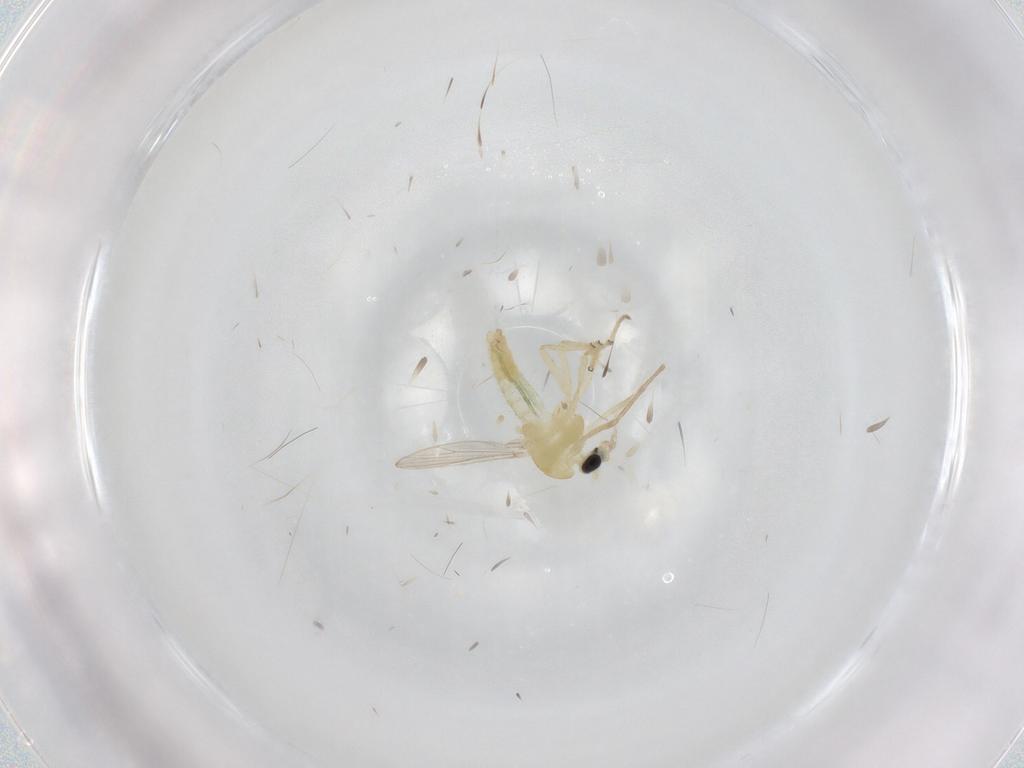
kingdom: Animalia
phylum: Arthropoda
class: Insecta
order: Diptera
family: Chironomidae
